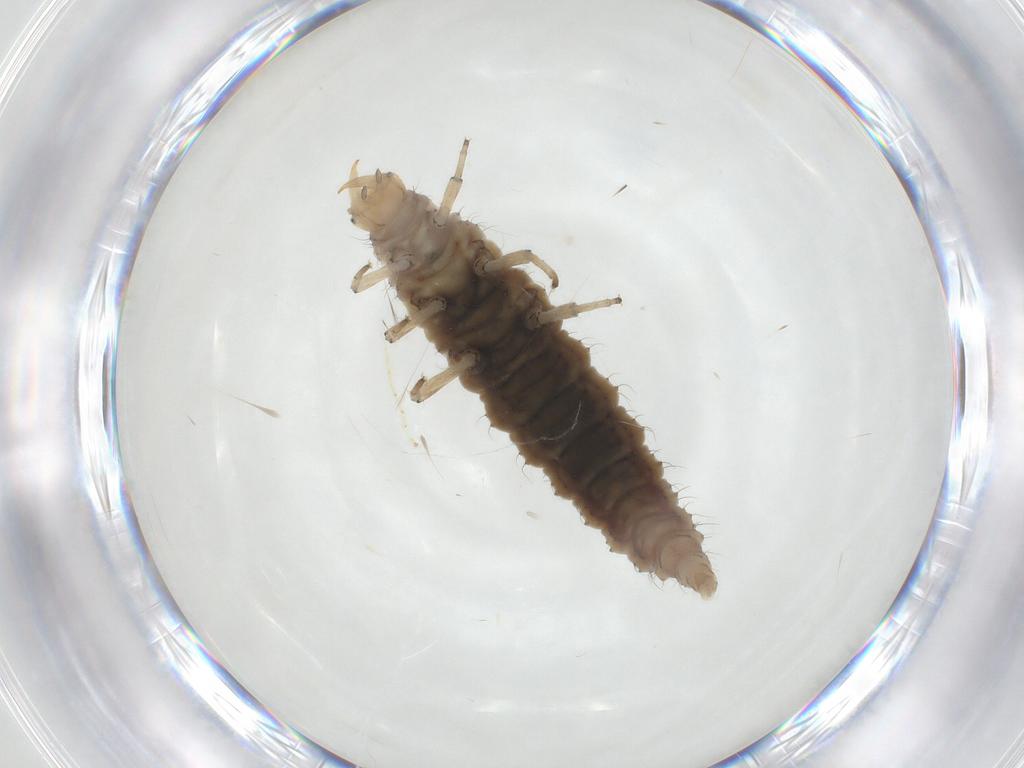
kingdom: Animalia
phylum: Arthropoda
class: Insecta
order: Neuroptera
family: Hemerobiidae
